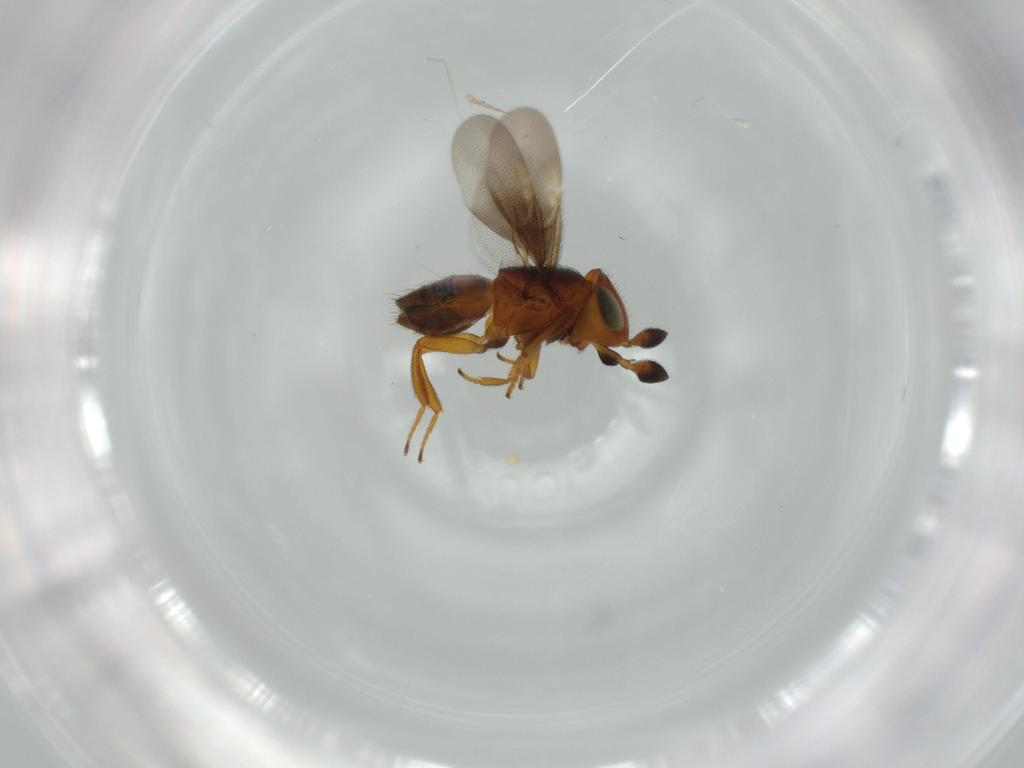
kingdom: Animalia
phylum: Arthropoda
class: Insecta
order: Hymenoptera
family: Encyrtidae
